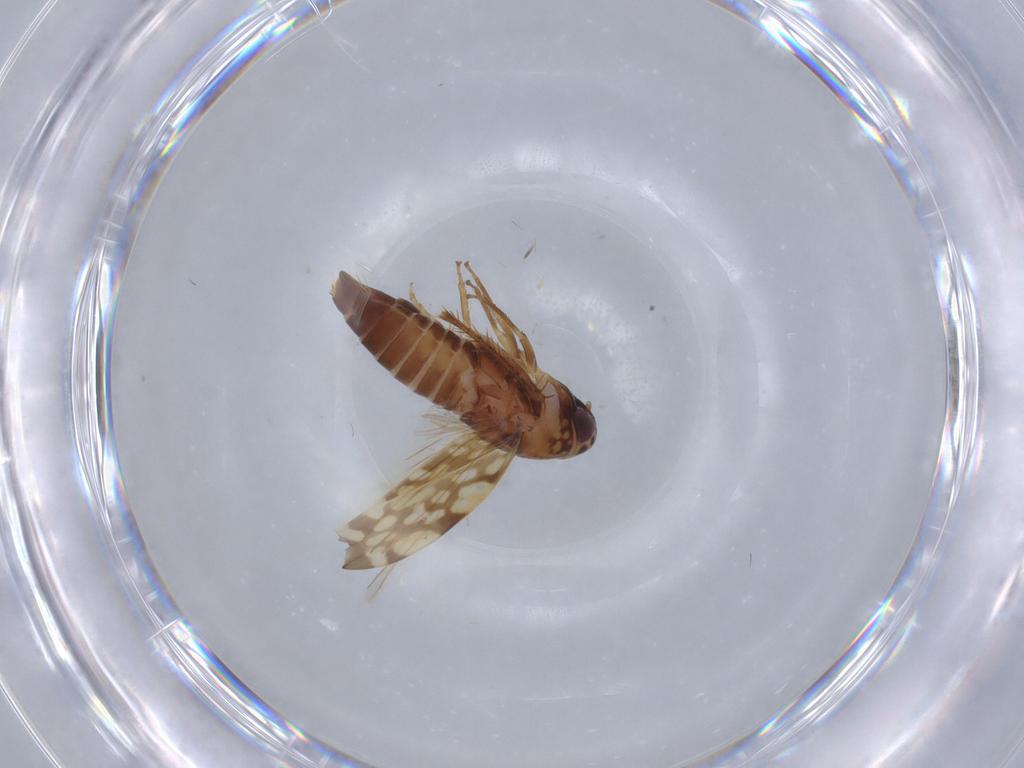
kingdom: Animalia
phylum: Arthropoda
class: Insecta
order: Hemiptera
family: Cicadellidae
